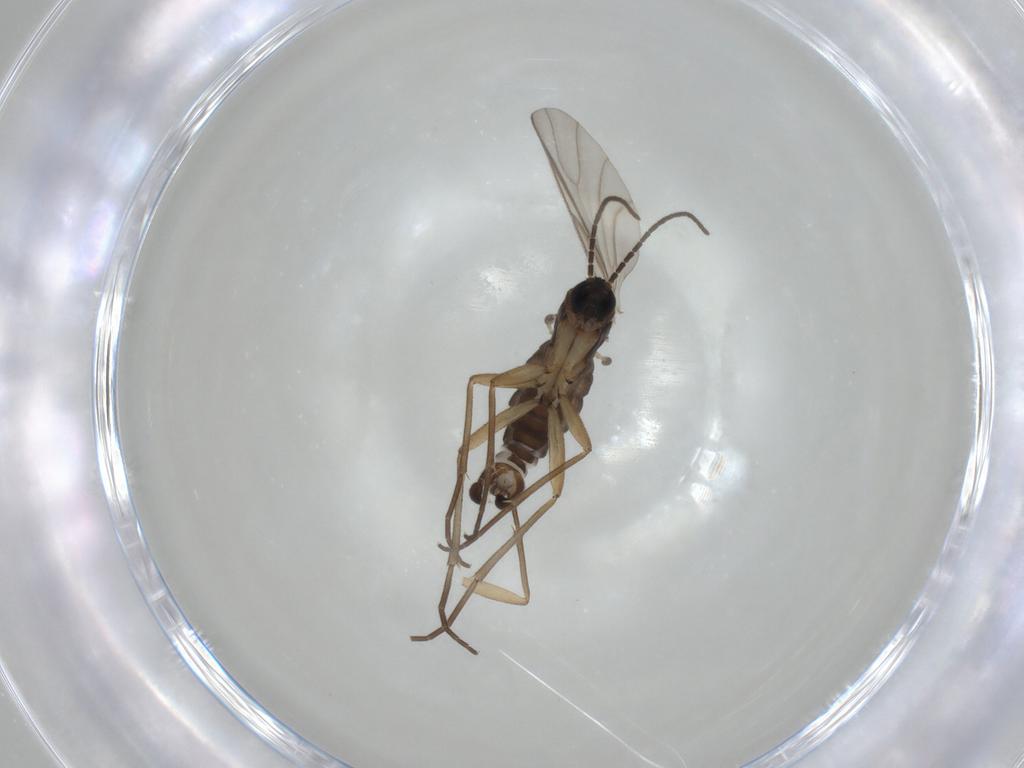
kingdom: Animalia
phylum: Arthropoda
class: Insecta
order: Diptera
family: Sciaridae
